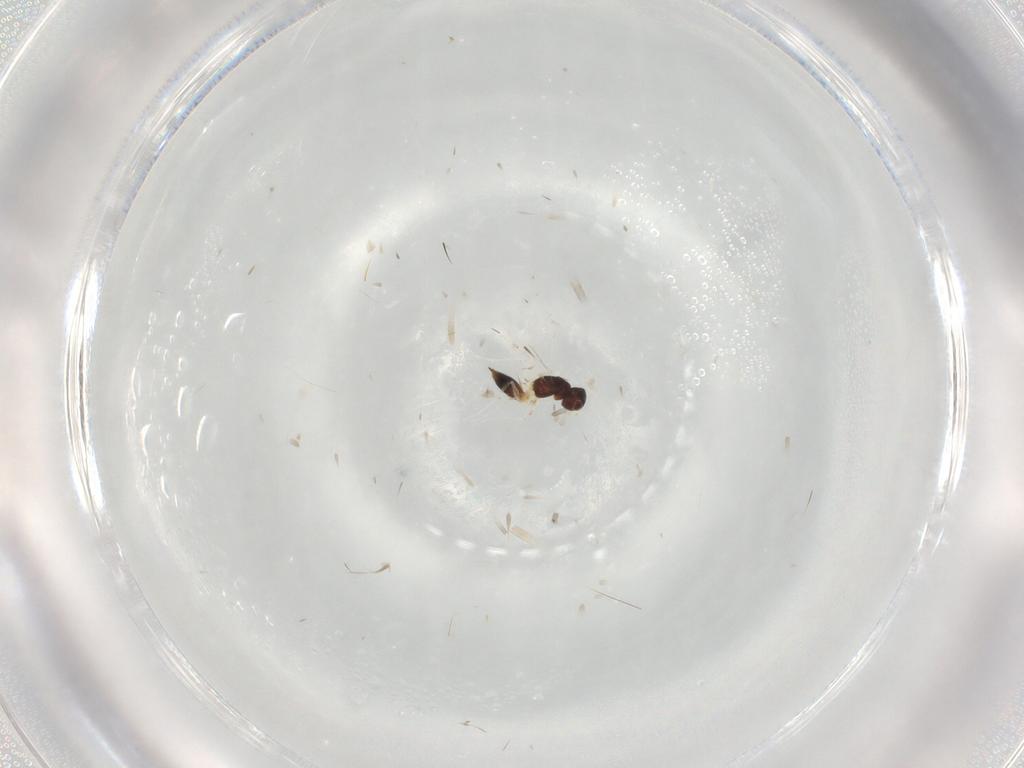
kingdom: Animalia
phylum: Arthropoda
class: Insecta
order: Hymenoptera
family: Mymaridae
